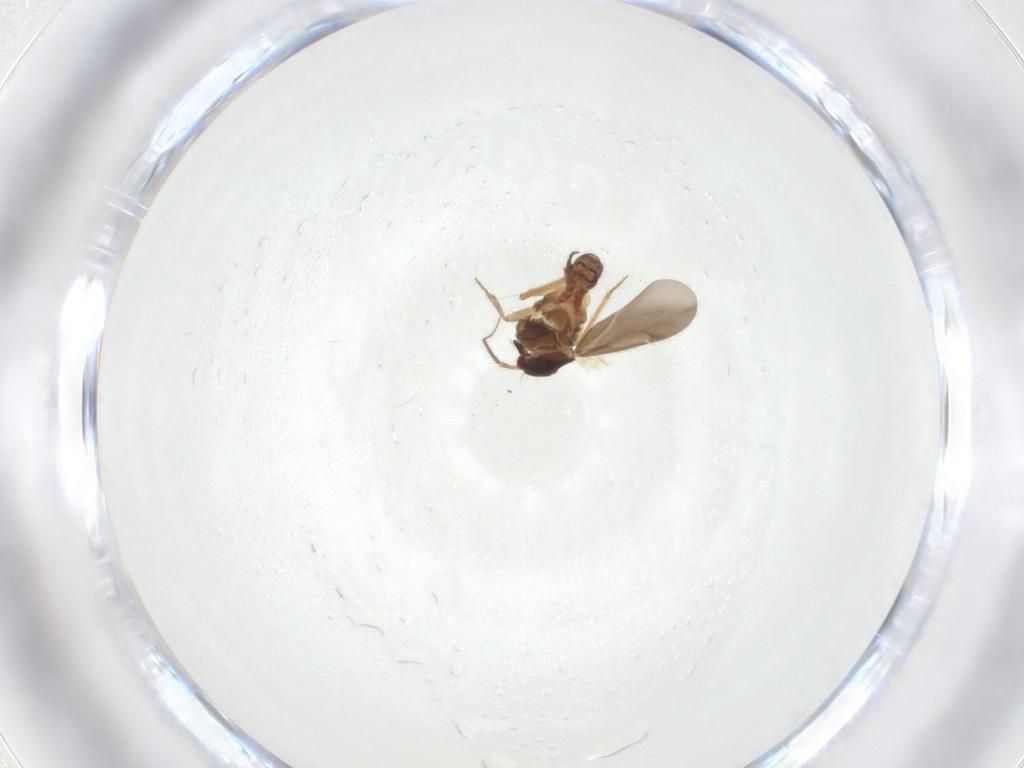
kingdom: Animalia
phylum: Arthropoda
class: Insecta
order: Hemiptera
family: Ceratocombidae
